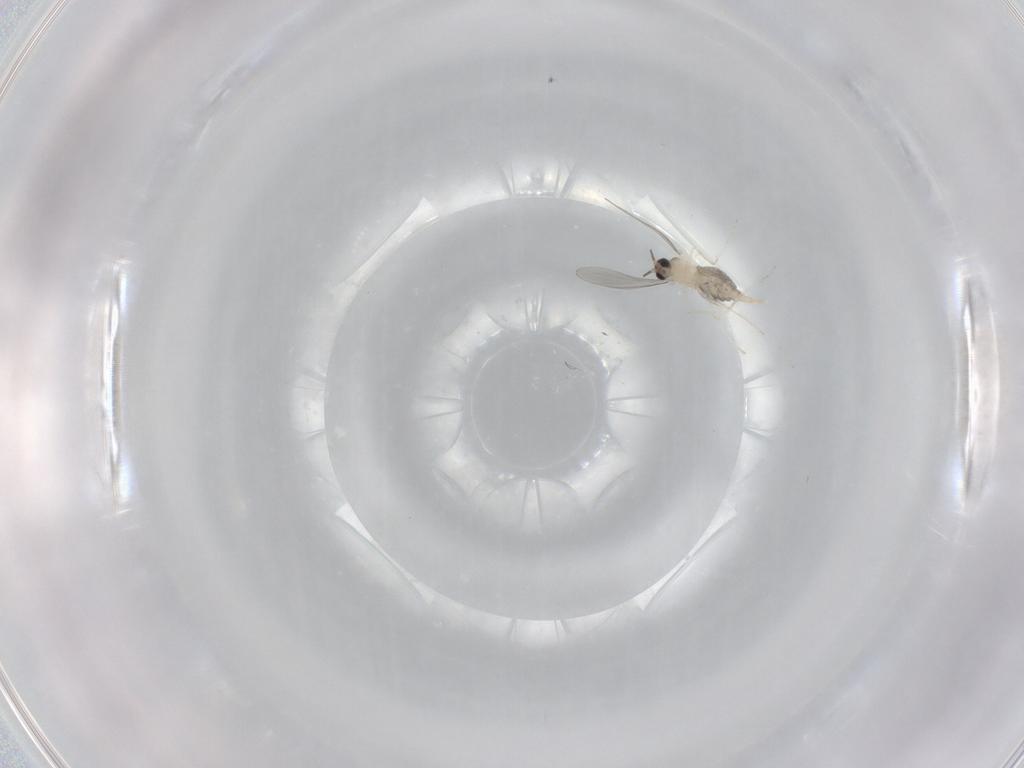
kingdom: Animalia
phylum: Arthropoda
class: Insecta
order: Diptera
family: Cecidomyiidae
